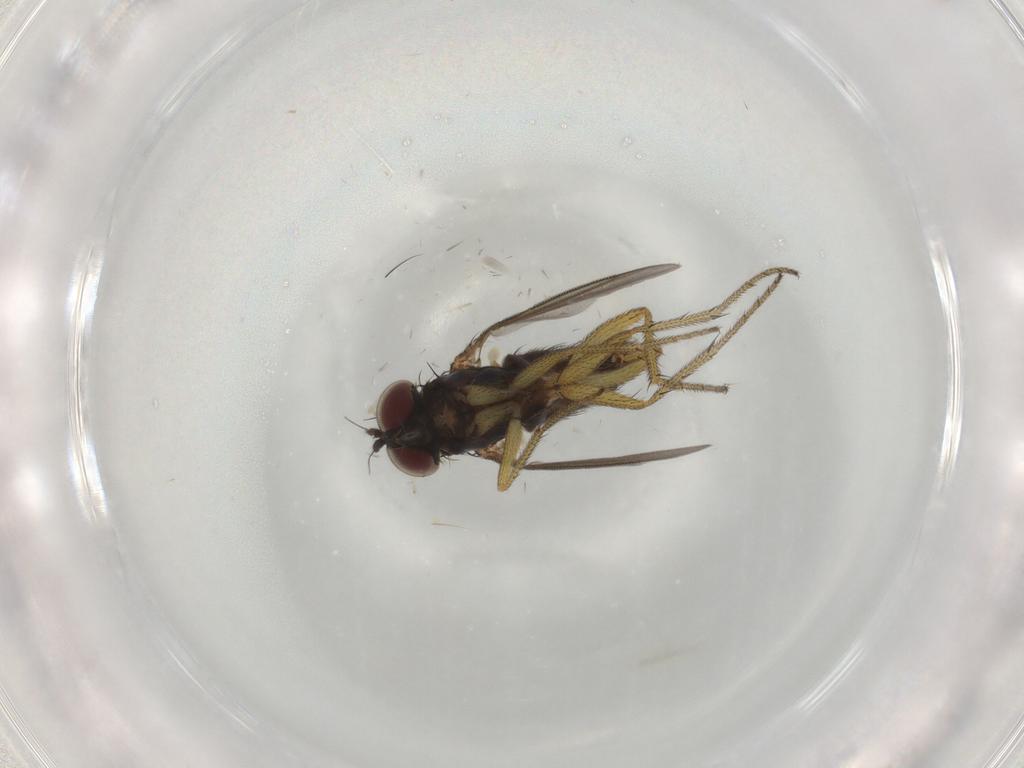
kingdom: Animalia
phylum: Arthropoda
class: Insecta
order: Diptera
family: Dolichopodidae
